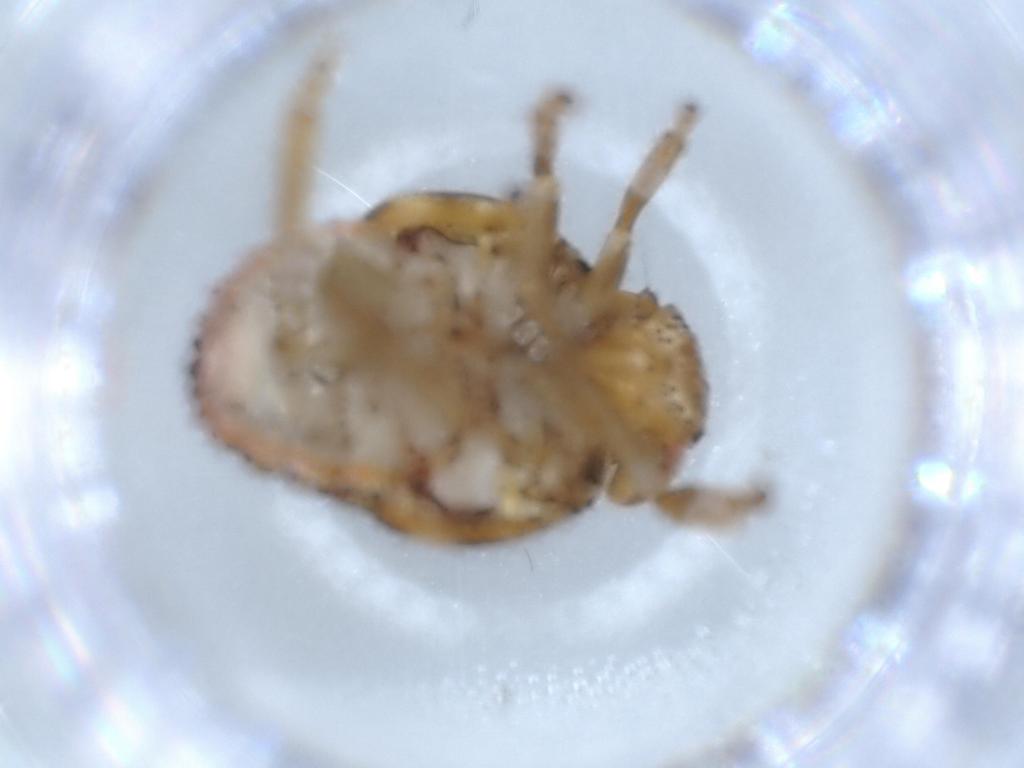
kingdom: Animalia
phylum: Arthropoda
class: Insecta
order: Hemiptera
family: Issidae
